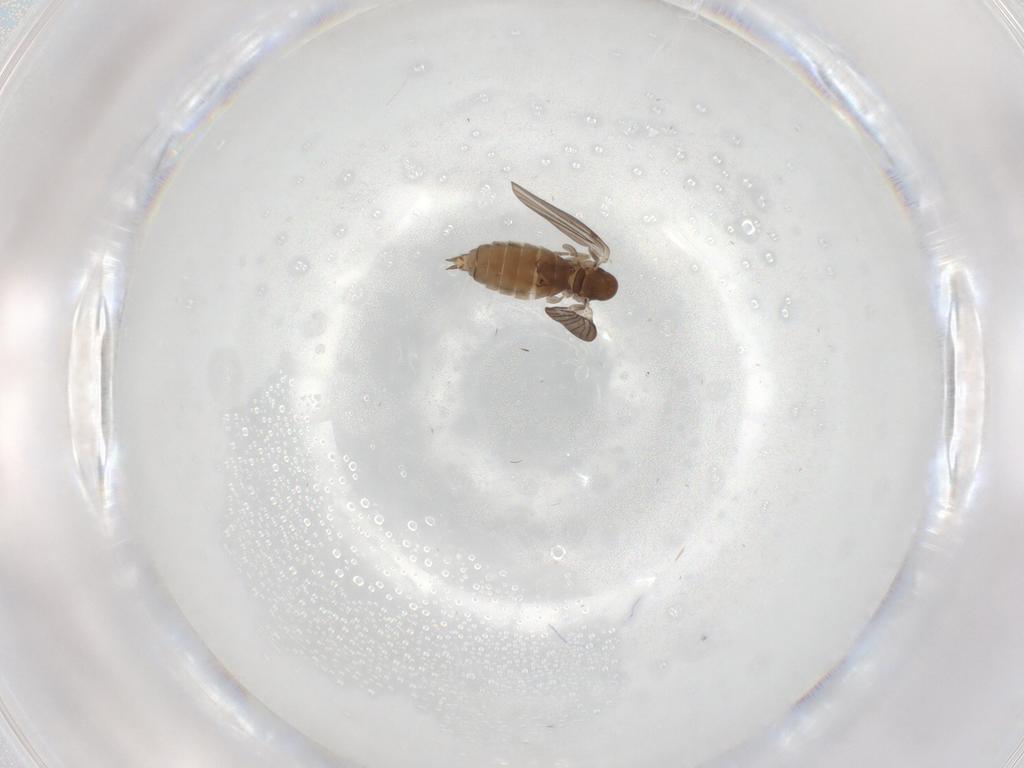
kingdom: Animalia
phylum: Arthropoda
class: Insecta
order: Diptera
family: Phoridae
